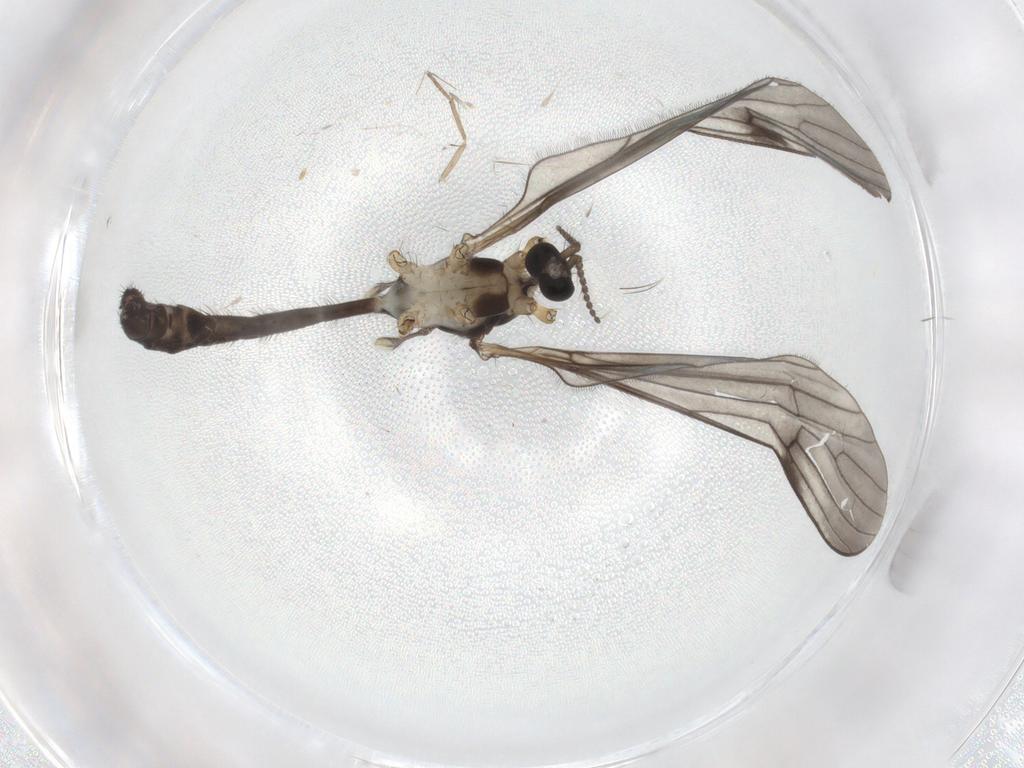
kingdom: Animalia
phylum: Arthropoda
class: Insecta
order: Diptera
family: Limoniidae
